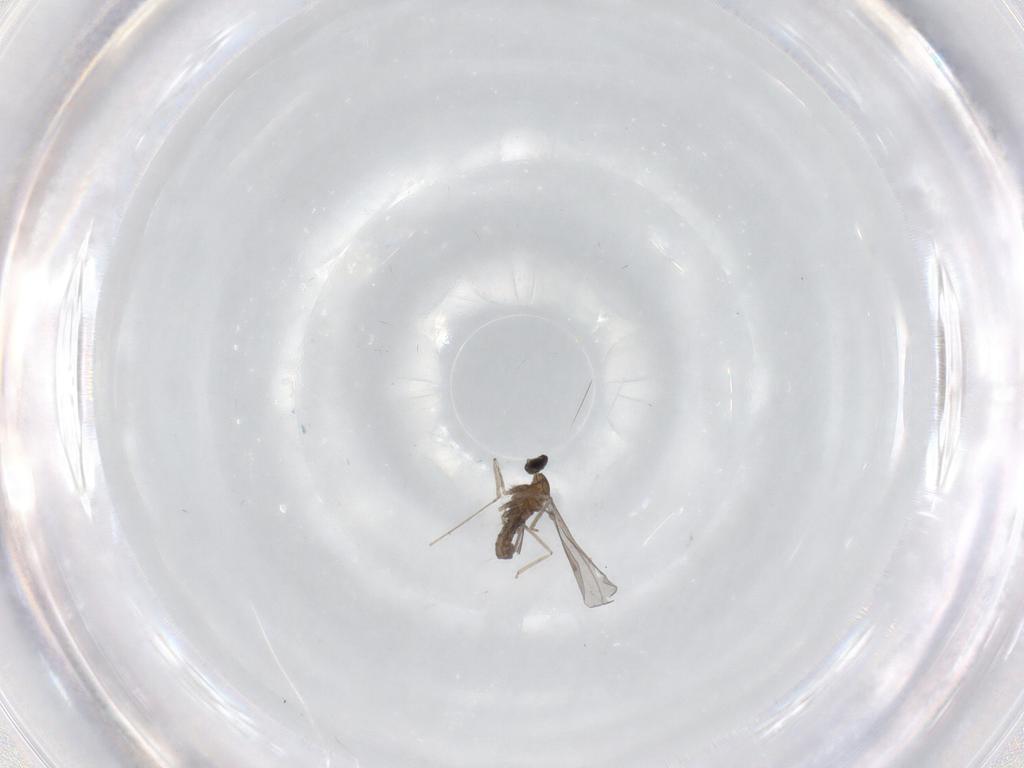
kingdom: Animalia
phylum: Arthropoda
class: Insecta
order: Diptera
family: Cecidomyiidae
